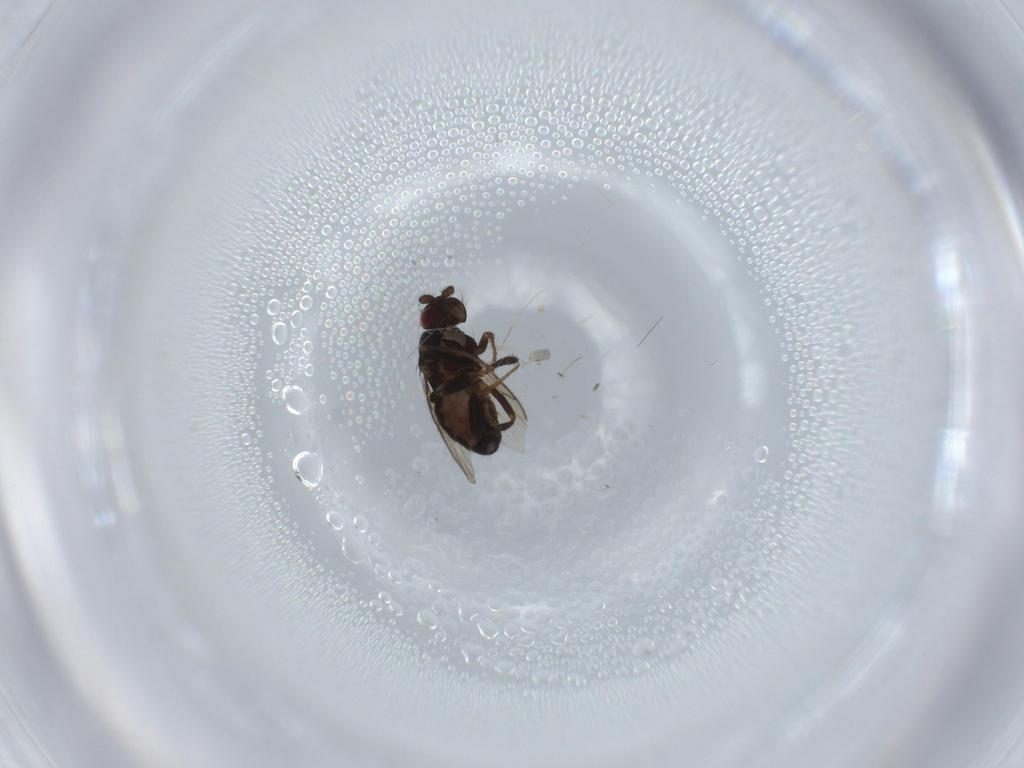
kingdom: Animalia
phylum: Arthropoda
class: Insecta
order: Diptera
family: Sphaeroceridae
